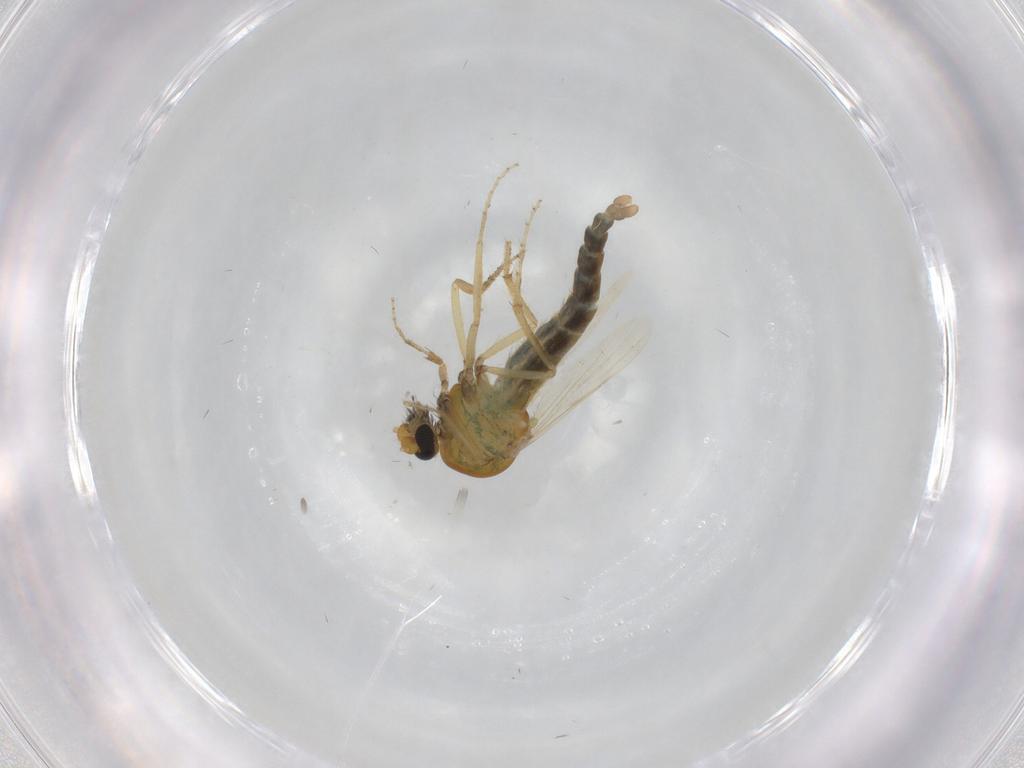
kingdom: Animalia
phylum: Arthropoda
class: Insecta
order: Diptera
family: Ceratopogonidae
